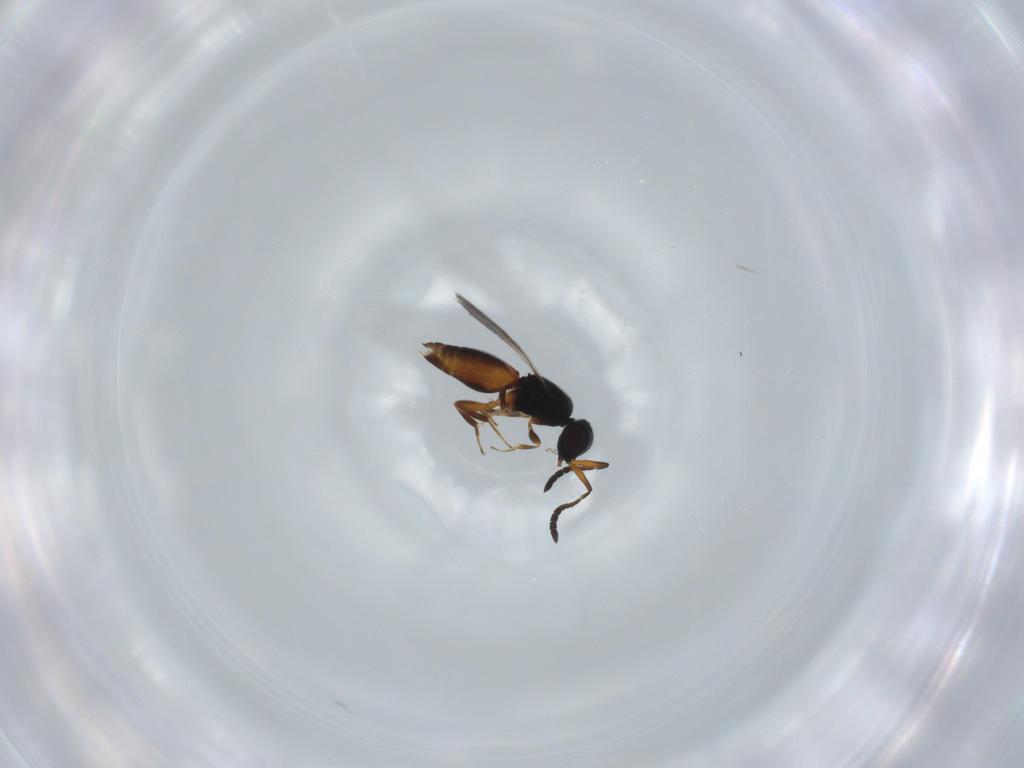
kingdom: Animalia
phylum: Arthropoda
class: Insecta
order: Hymenoptera
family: Ceraphronidae
